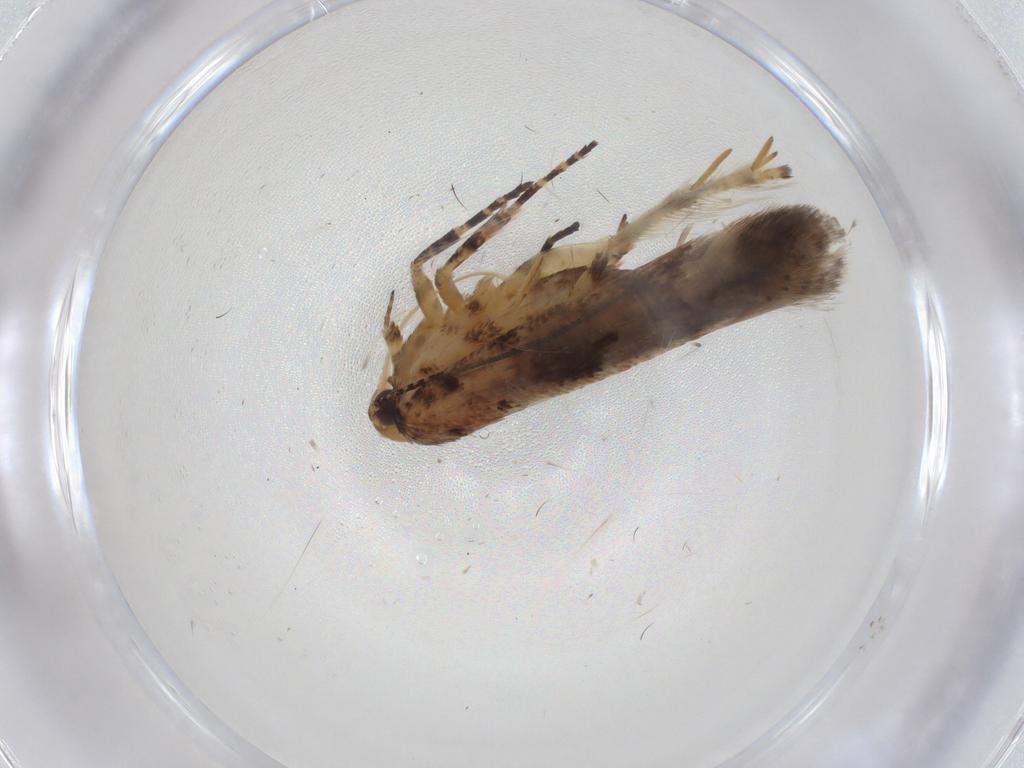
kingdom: Animalia
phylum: Arthropoda
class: Insecta
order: Lepidoptera
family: Gelechiidae
